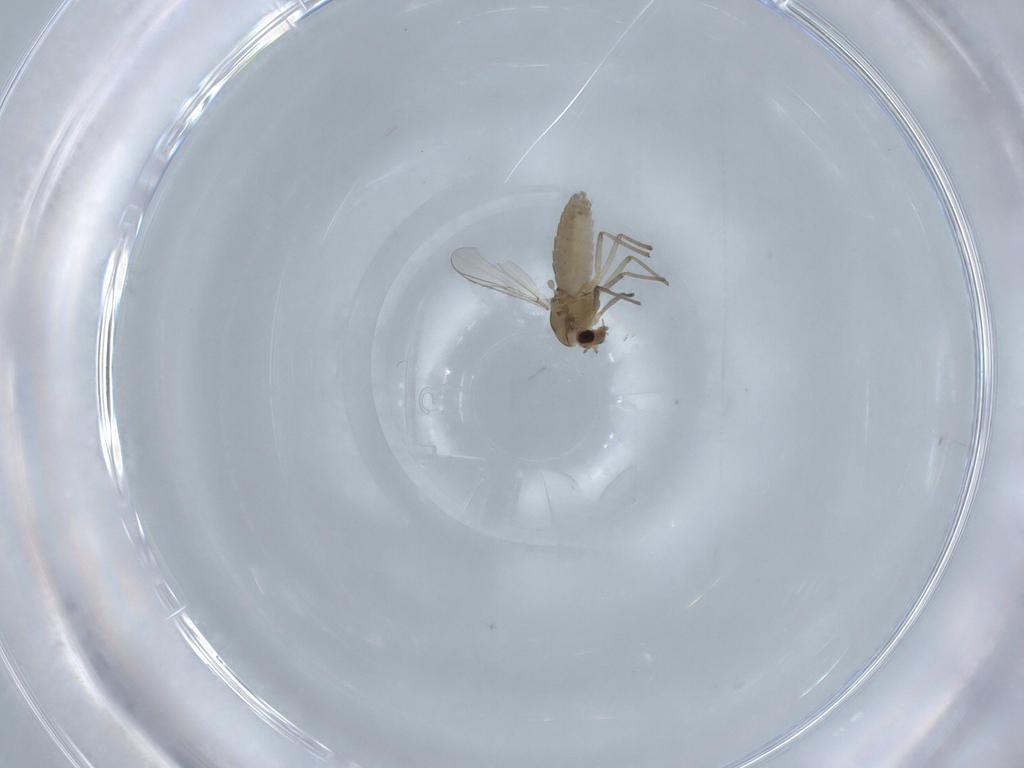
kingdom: Animalia
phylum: Arthropoda
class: Insecta
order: Diptera
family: Chironomidae
